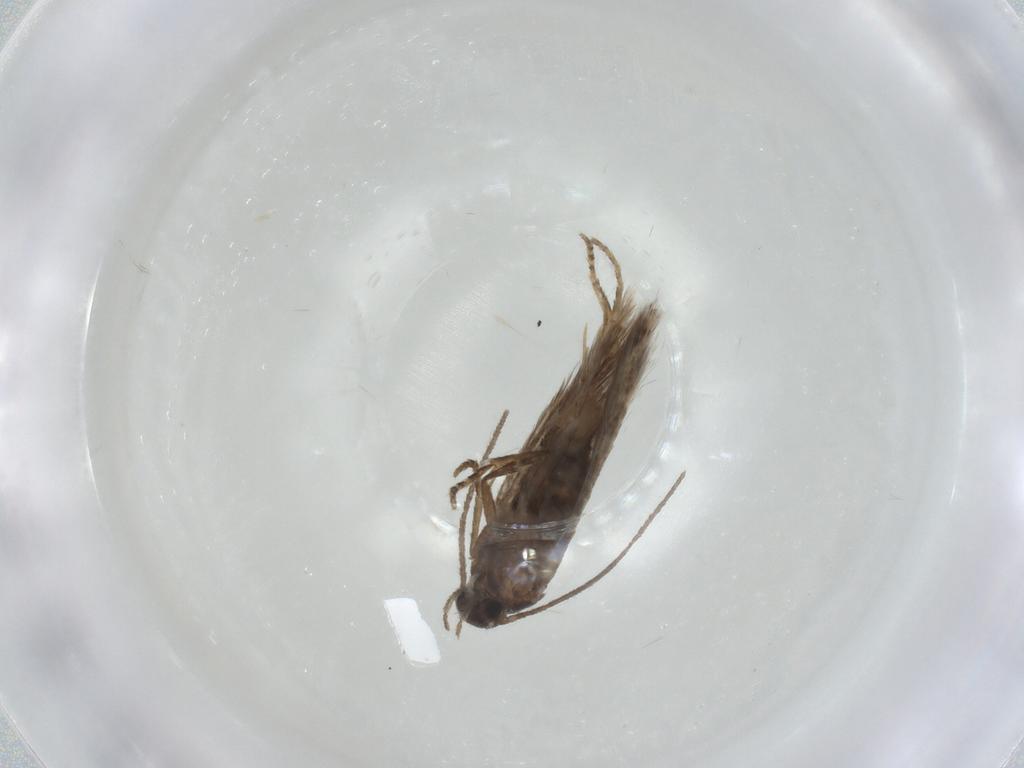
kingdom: Animalia
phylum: Arthropoda
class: Insecta
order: Lepidoptera
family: Elachistidae
